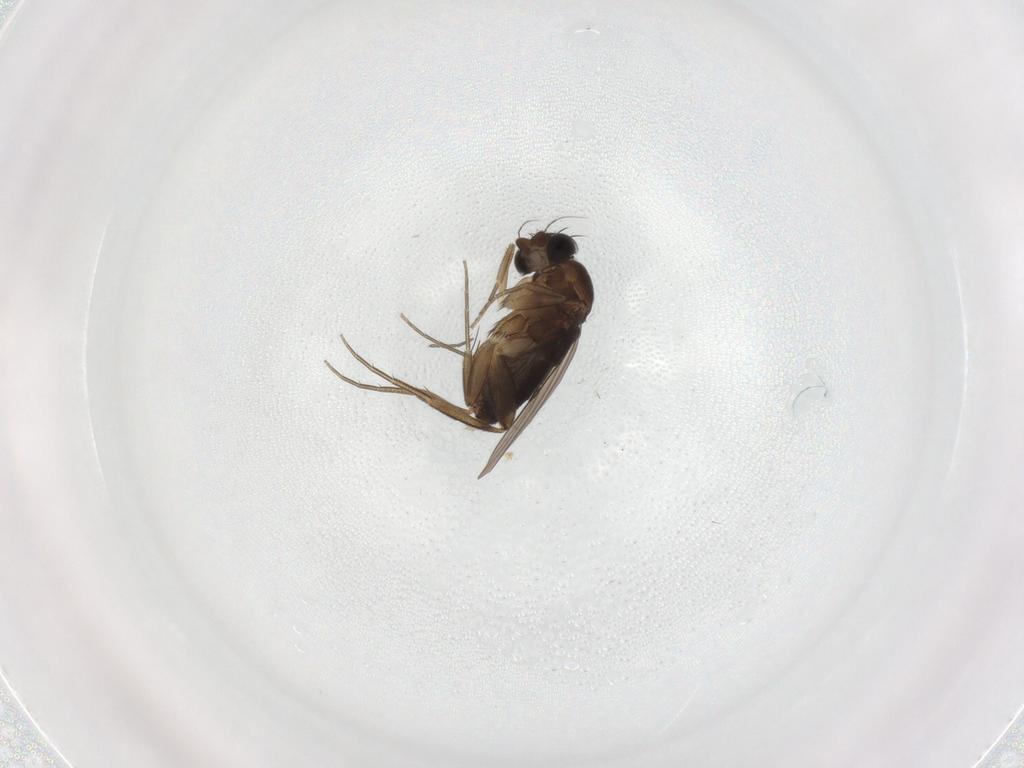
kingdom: Animalia
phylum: Arthropoda
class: Insecta
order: Diptera
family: Phoridae
